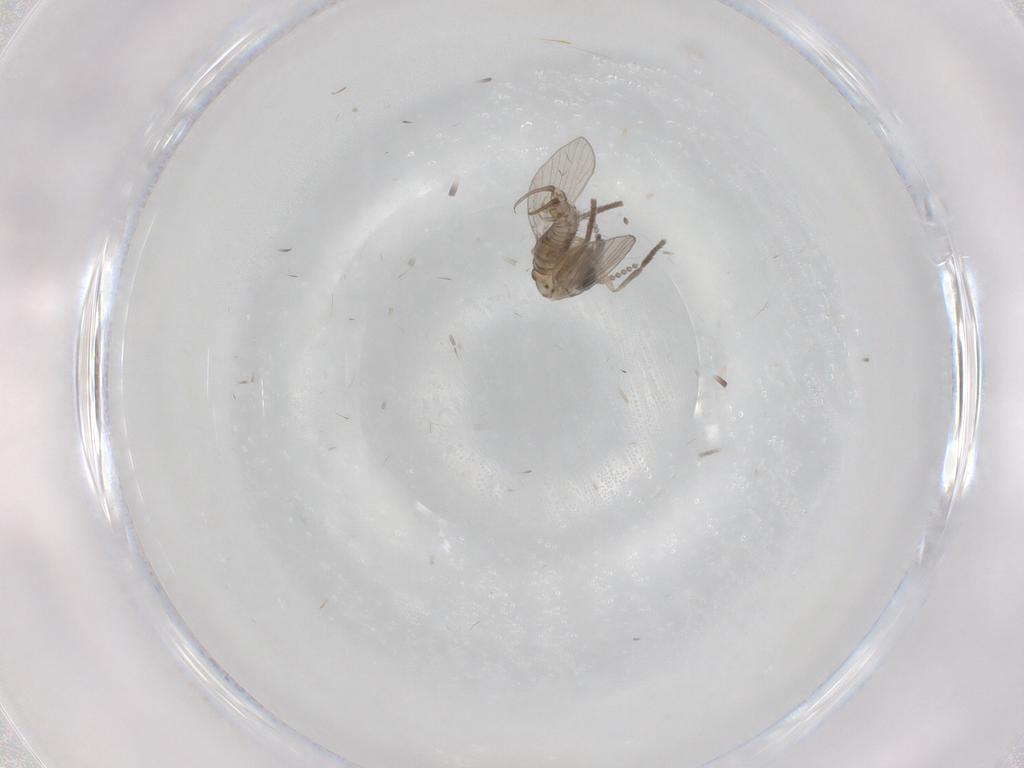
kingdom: Animalia
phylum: Arthropoda
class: Insecta
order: Diptera
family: Psychodidae
